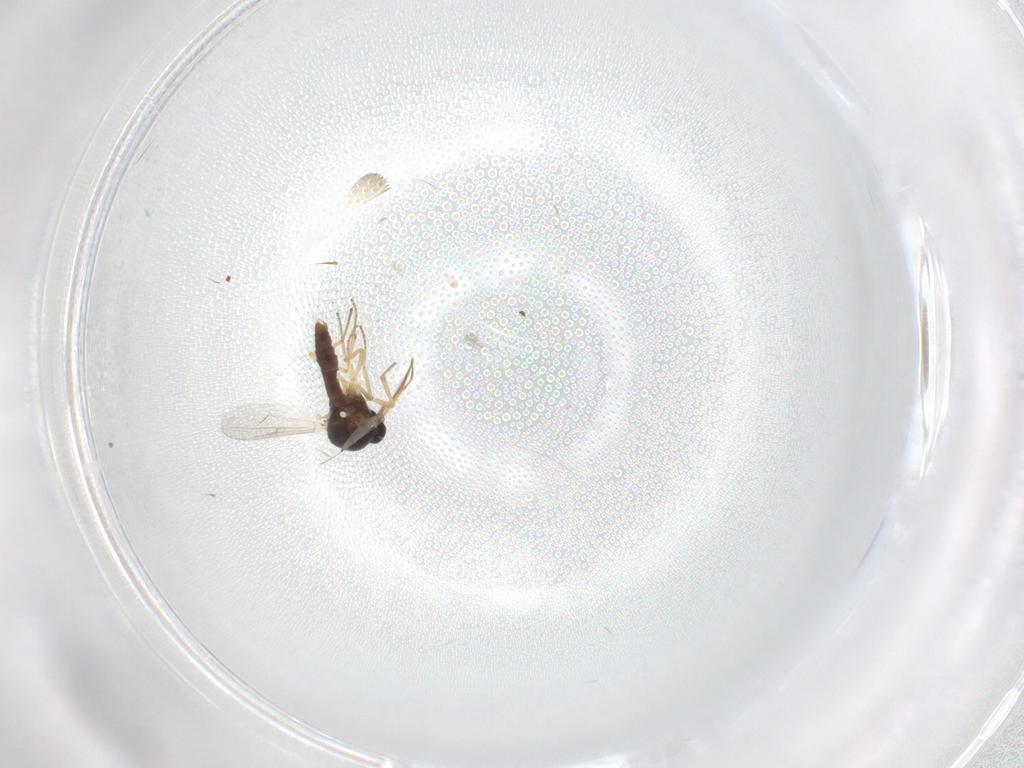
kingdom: Animalia
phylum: Arthropoda
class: Insecta
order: Diptera
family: Ceratopogonidae
